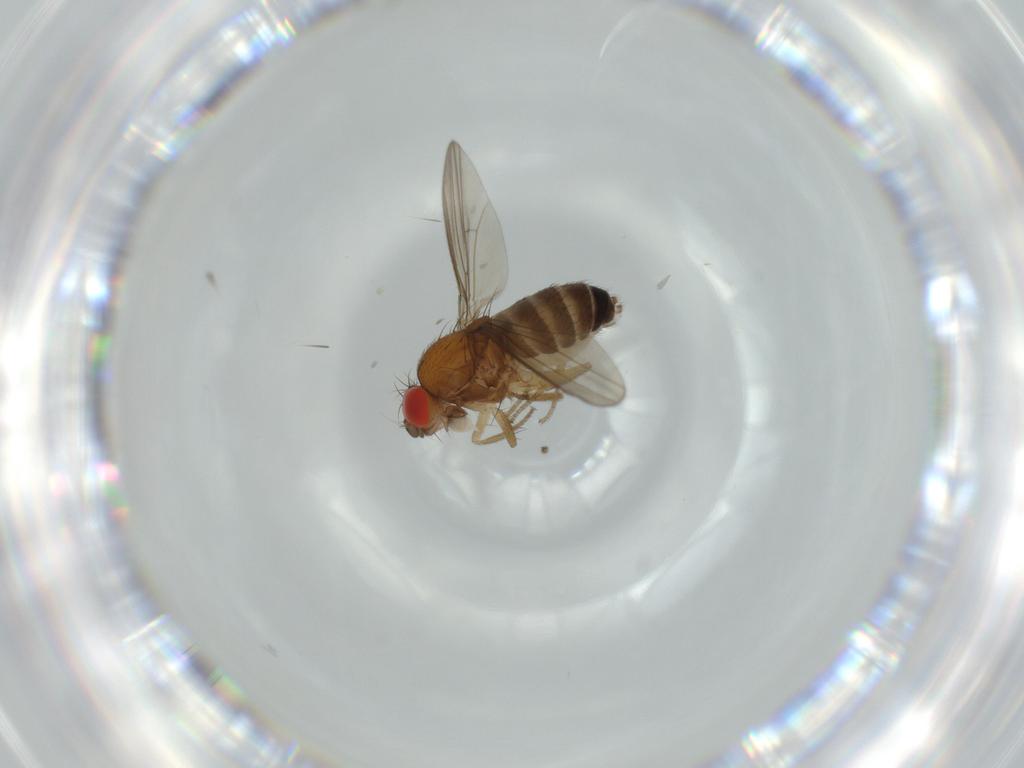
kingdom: Animalia
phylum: Arthropoda
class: Insecta
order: Diptera
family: Drosophilidae
